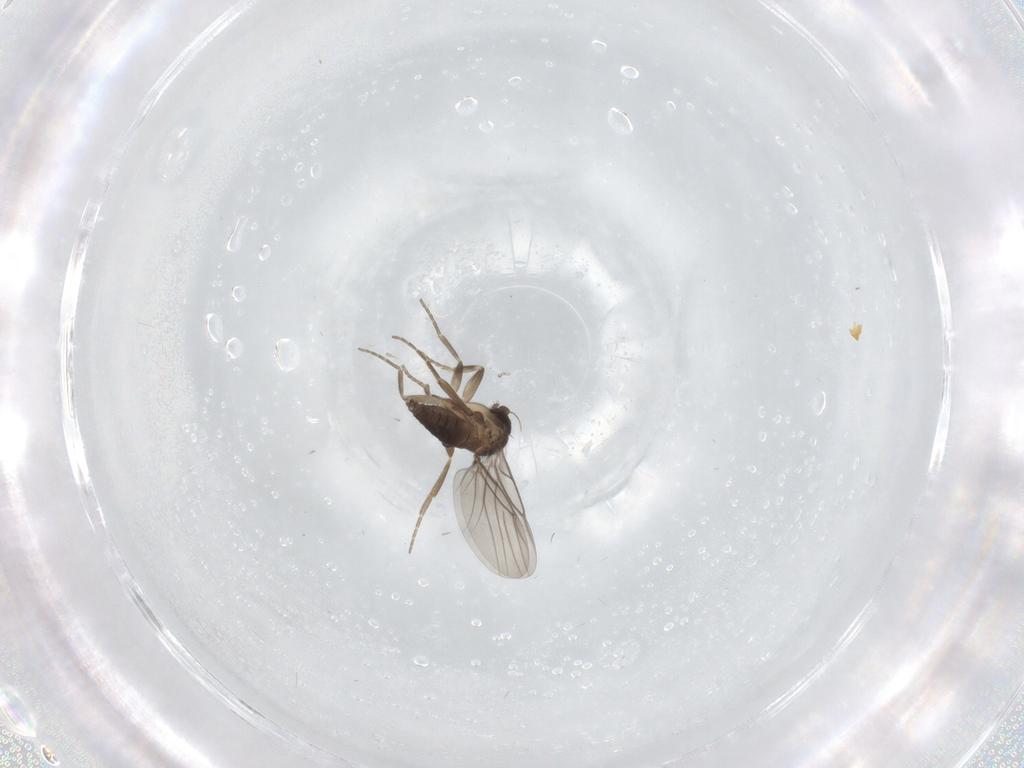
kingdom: Animalia
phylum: Arthropoda
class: Insecta
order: Diptera
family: Phoridae
